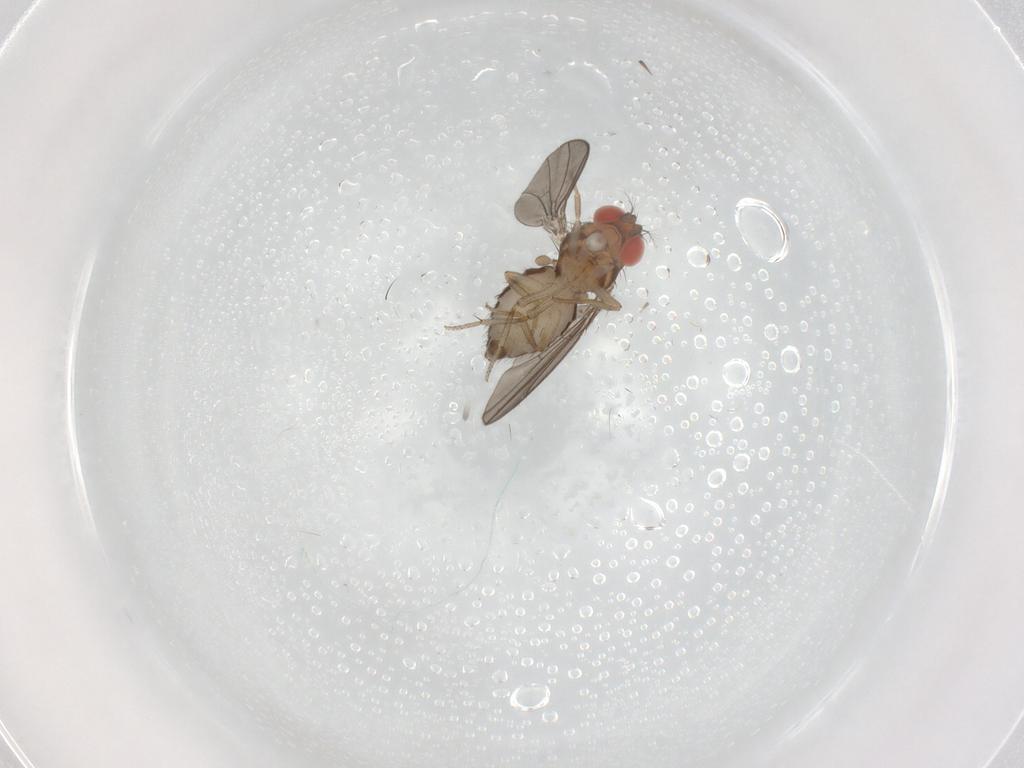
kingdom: Animalia
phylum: Arthropoda
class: Insecta
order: Diptera
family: Drosophilidae
